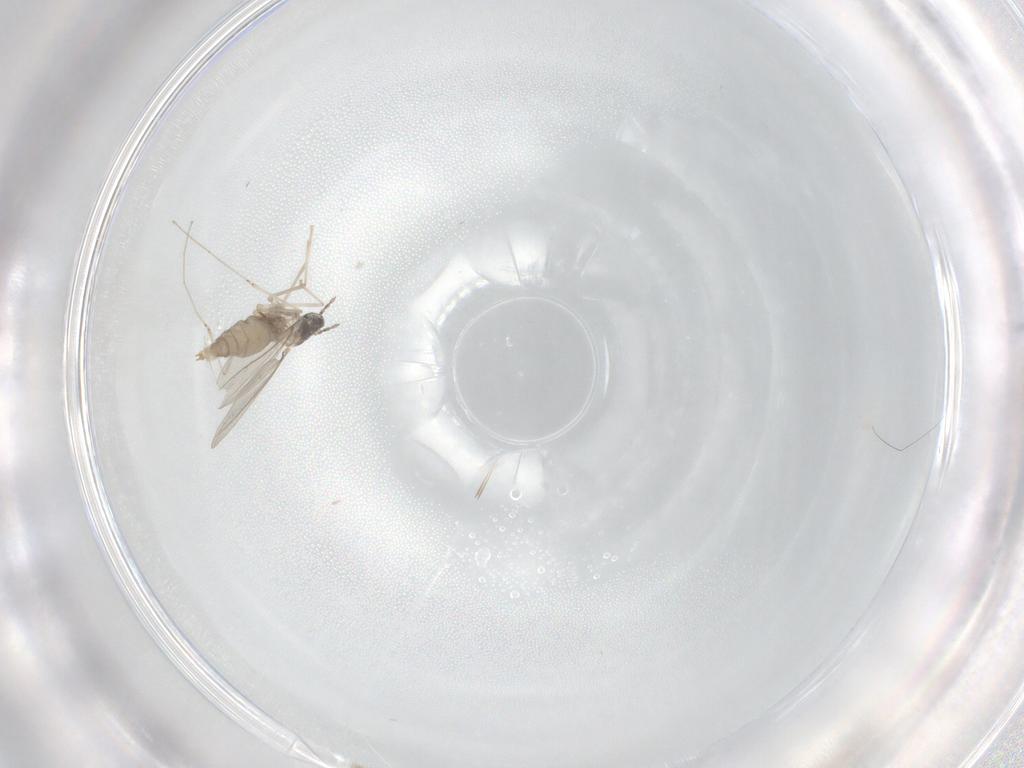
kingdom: Animalia
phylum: Arthropoda
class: Insecta
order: Diptera
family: Cecidomyiidae
